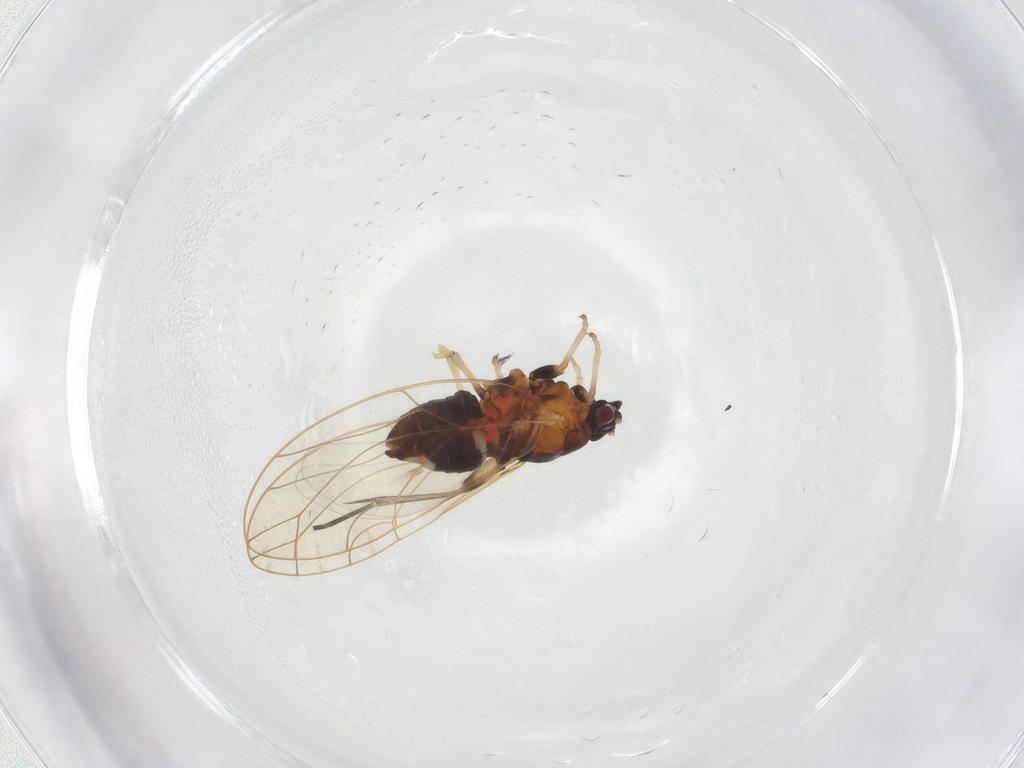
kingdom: Animalia
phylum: Arthropoda
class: Insecta
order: Hemiptera
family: Triozidae
